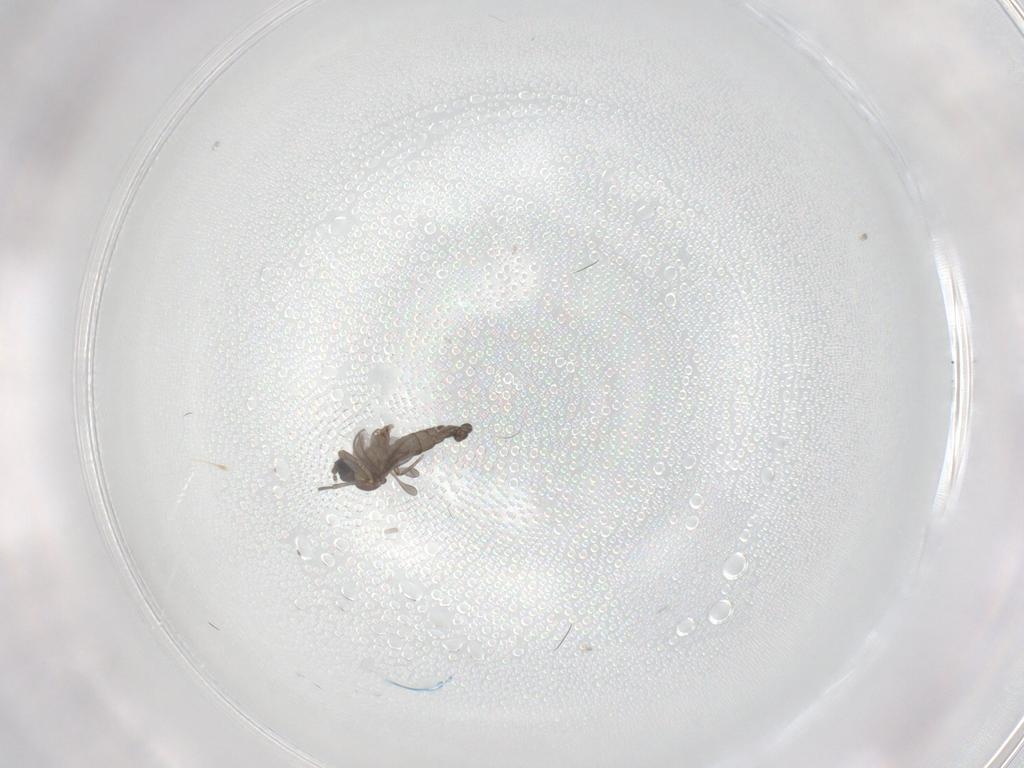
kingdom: Animalia
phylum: Arthropoda
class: Insecta
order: Diptera
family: Sciaridae
